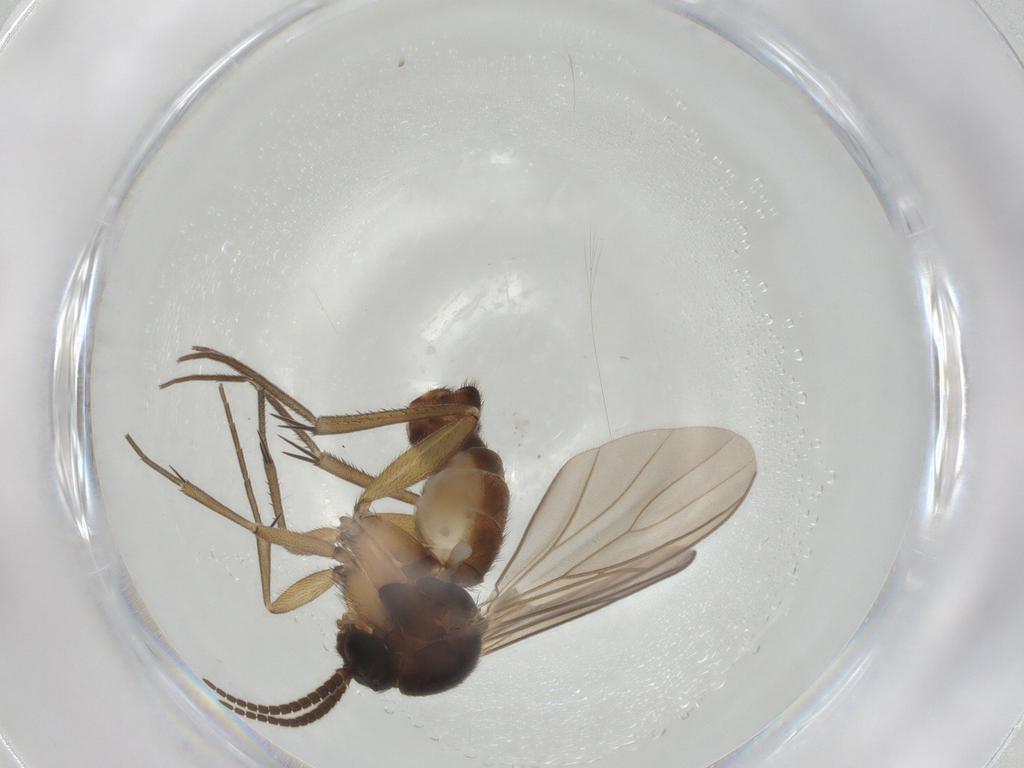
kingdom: Animalia
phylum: Arthropoda
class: Insecta
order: Diptera
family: Mycetophilidae
